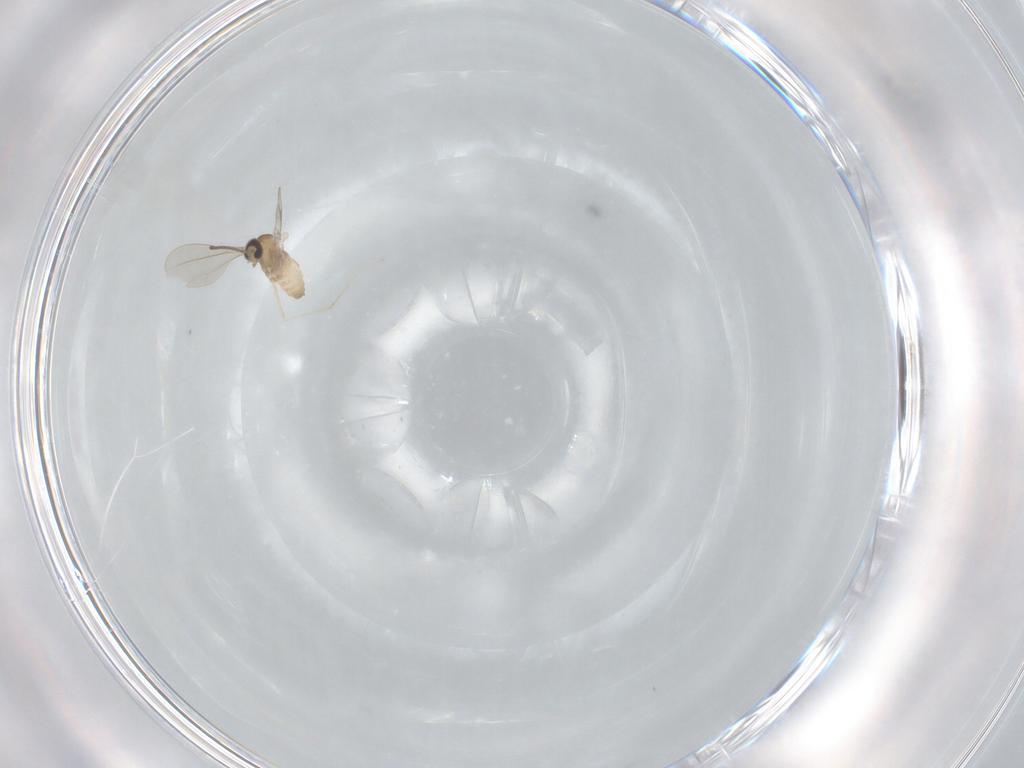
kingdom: Animalia
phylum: Arthropoda
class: Insecta
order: Diptera
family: Cecidomyiidae
